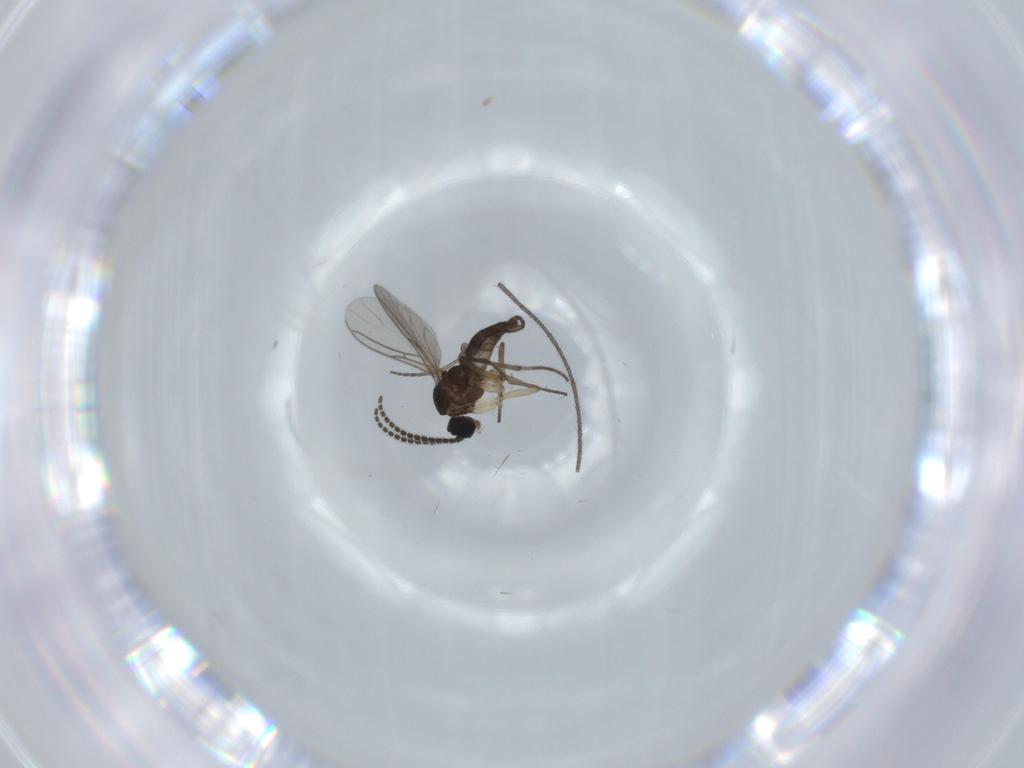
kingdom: Animalia
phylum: Arthropoda
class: Insecta
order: Diptera
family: Sciaridae
